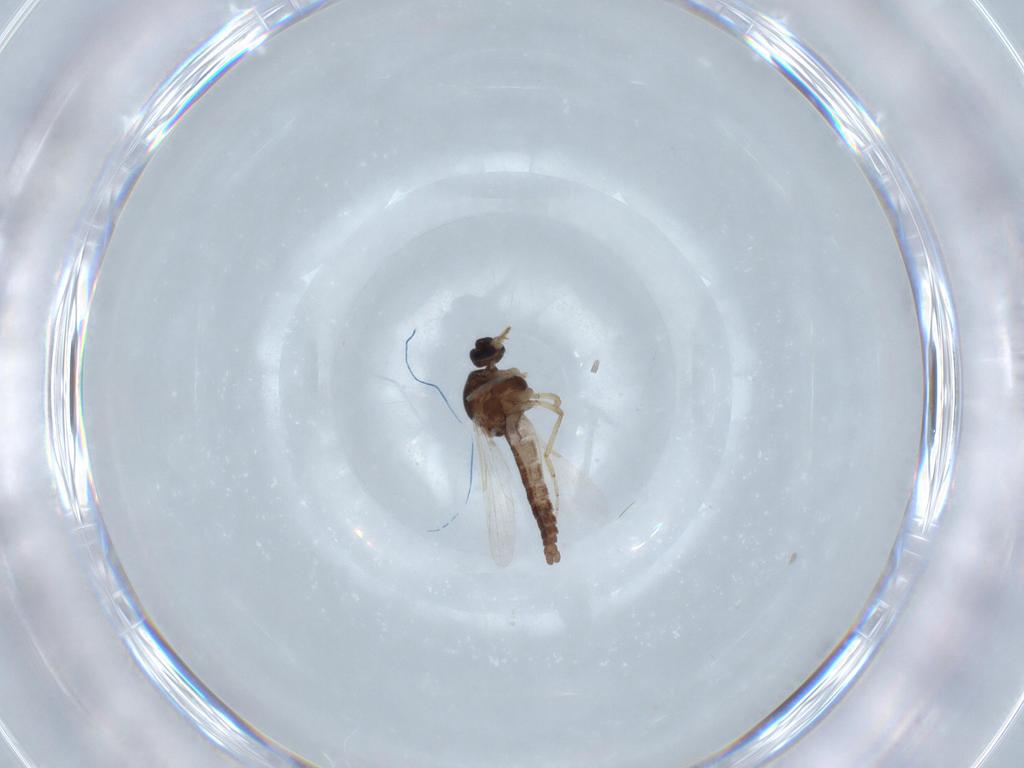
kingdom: Animalia
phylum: Arthropoda
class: Insecta
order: Diptera
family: Ceratopogonidae
